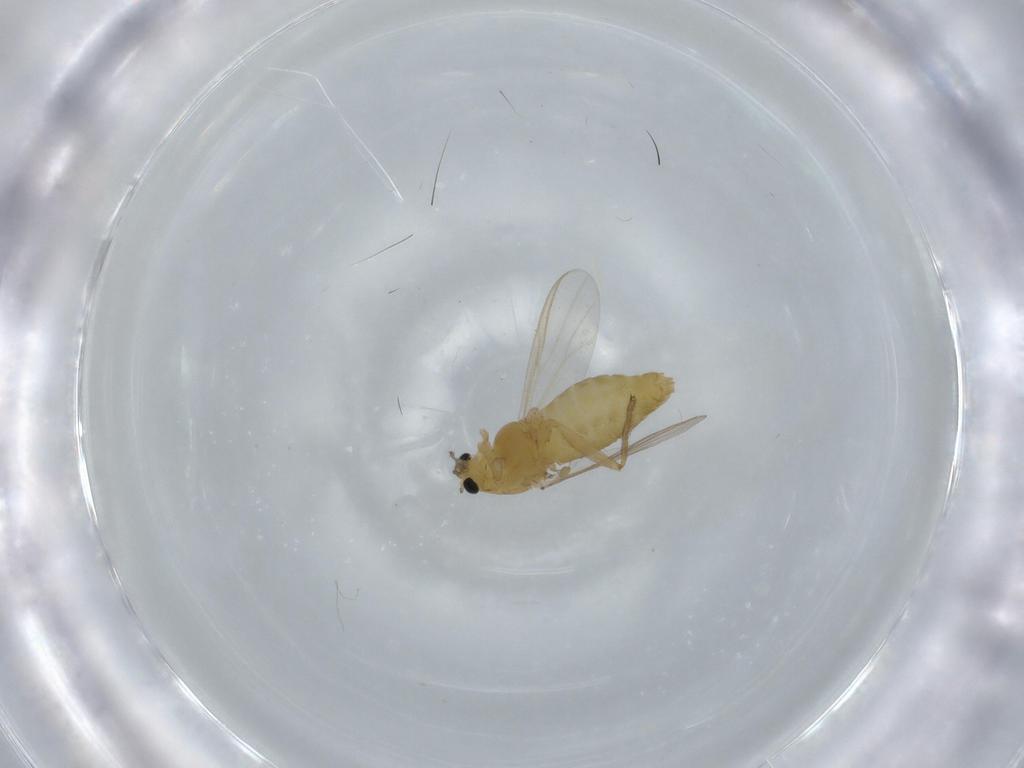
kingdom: Animalia
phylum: Arthropoda
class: Insecta
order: Diptera
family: Chironomidae
